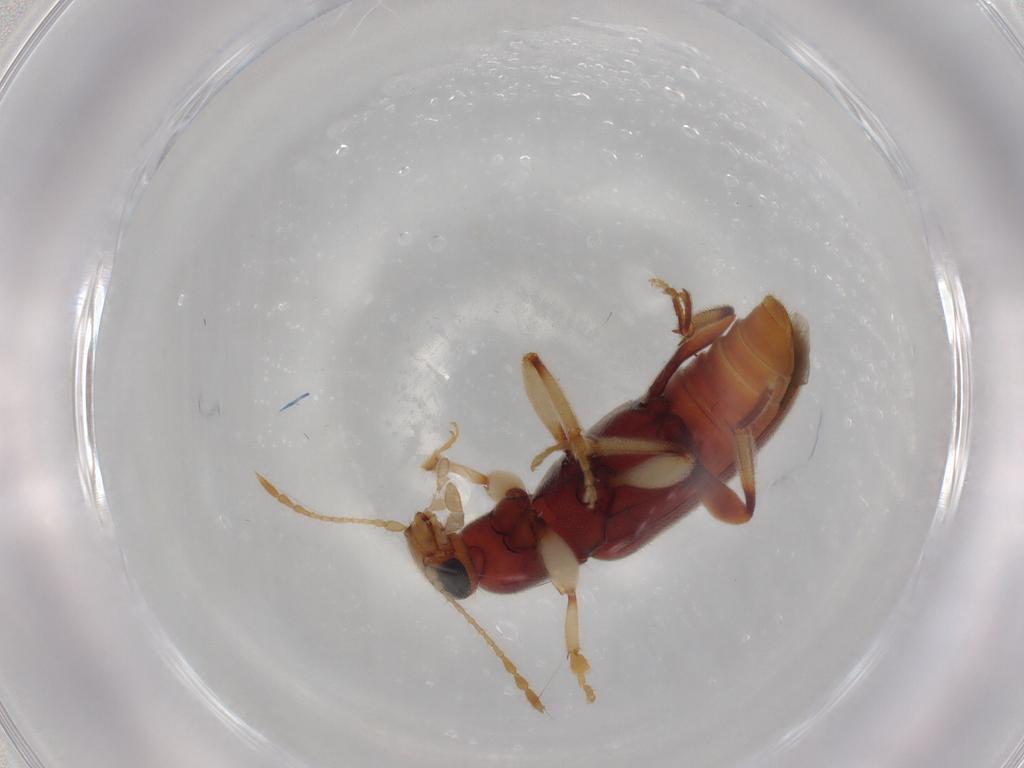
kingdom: Animalia
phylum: Arthropoda
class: Insecta
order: Coleoptera
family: Anthicidae
